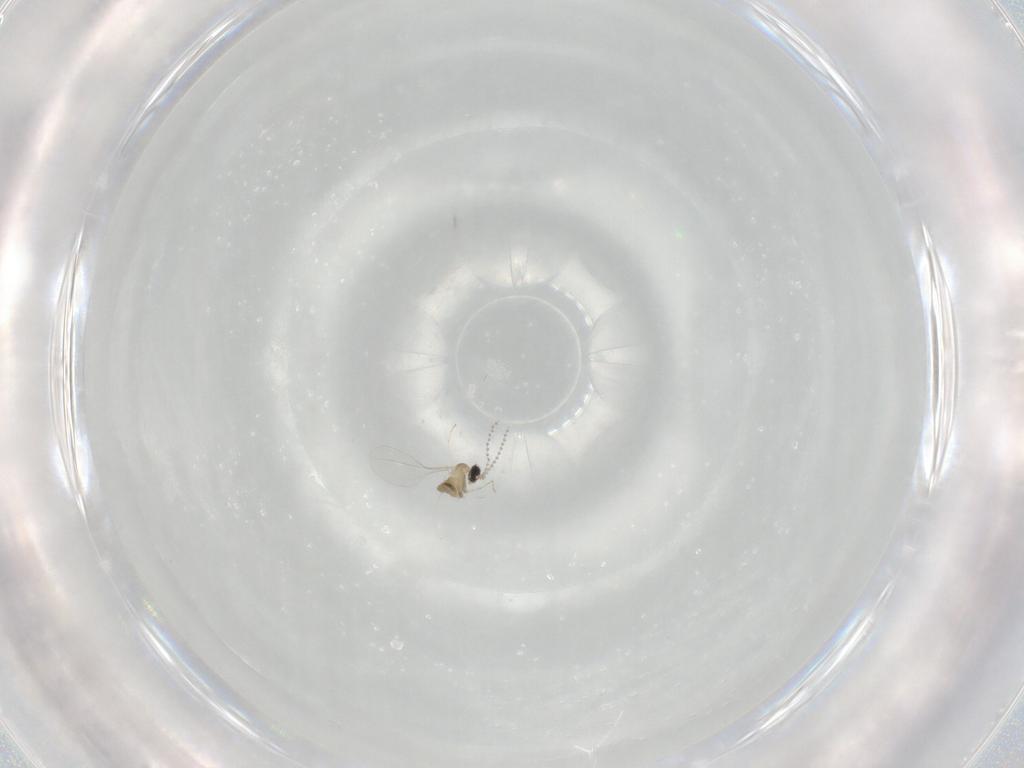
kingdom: Animalia
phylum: Arthropoda
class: Insecta
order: Diptera
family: Cecidomyiidae
